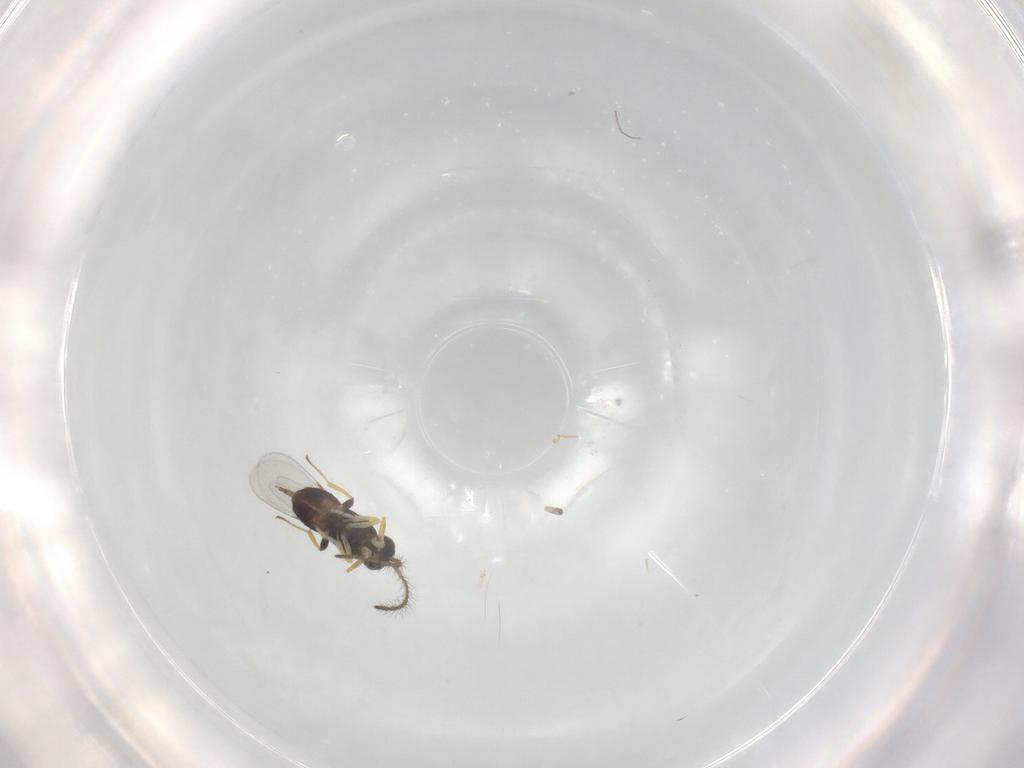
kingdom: Animalia
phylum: Arthropoda
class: Insecta
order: Hymenoptera
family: Scelionidae
